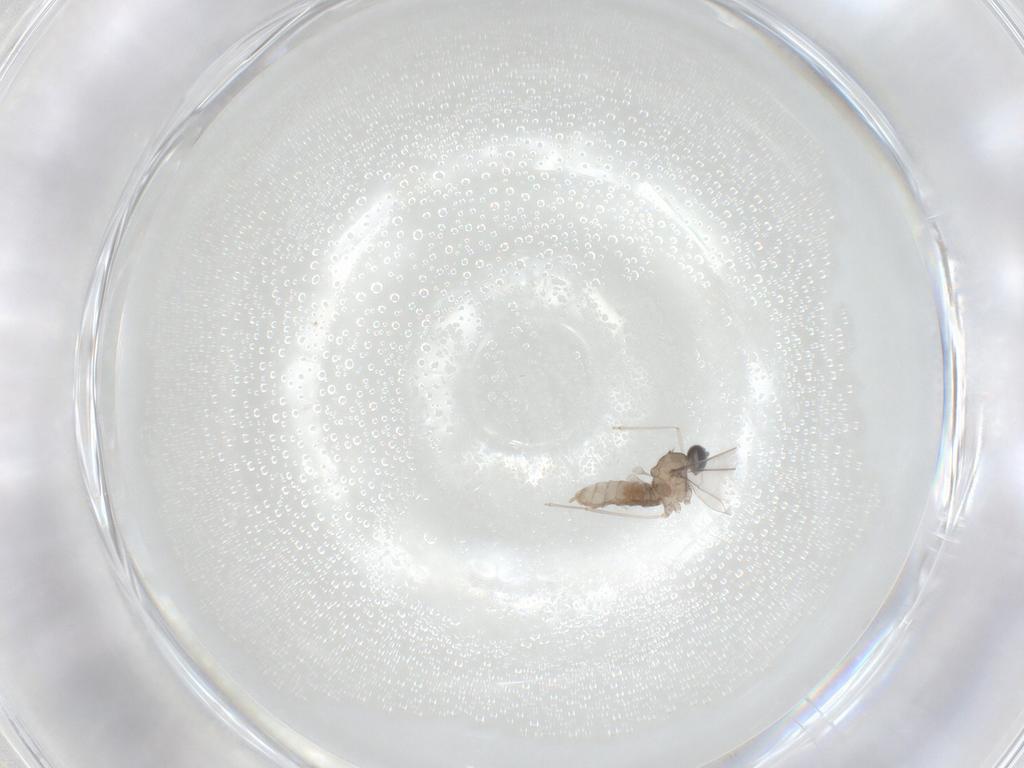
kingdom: Animalia
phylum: Arthropoda
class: Insecta
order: Diptera
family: Sphaeroceridae
